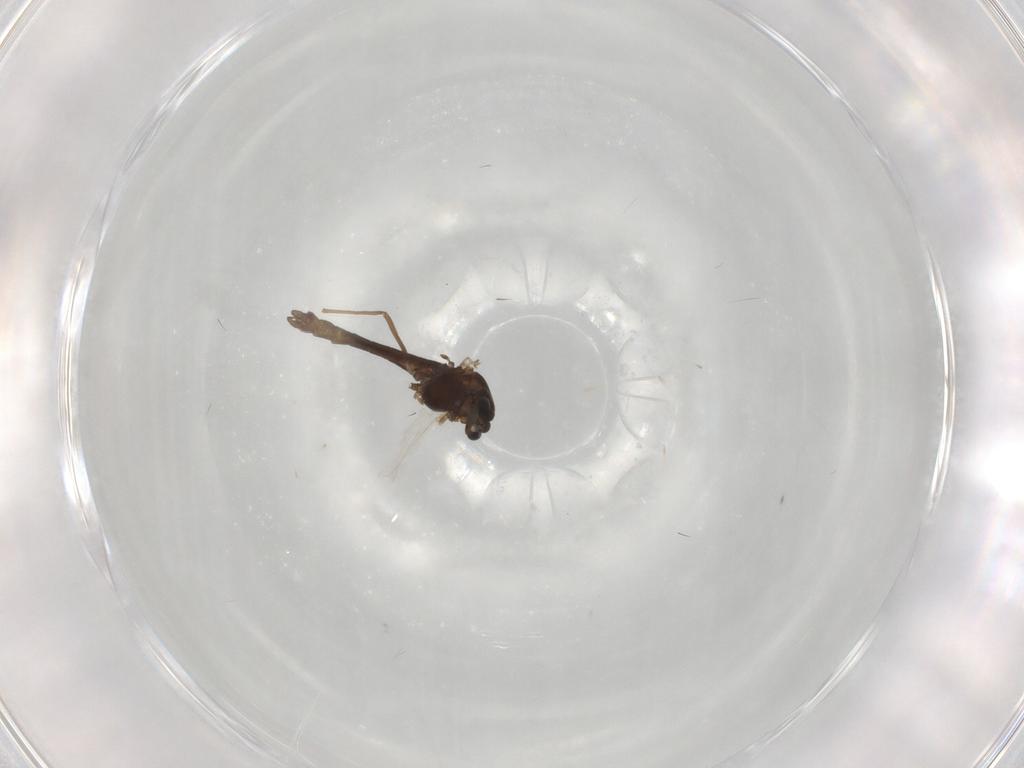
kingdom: Animalia
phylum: Arthropoda
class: Insecta
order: Diptera
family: Chironomidae
